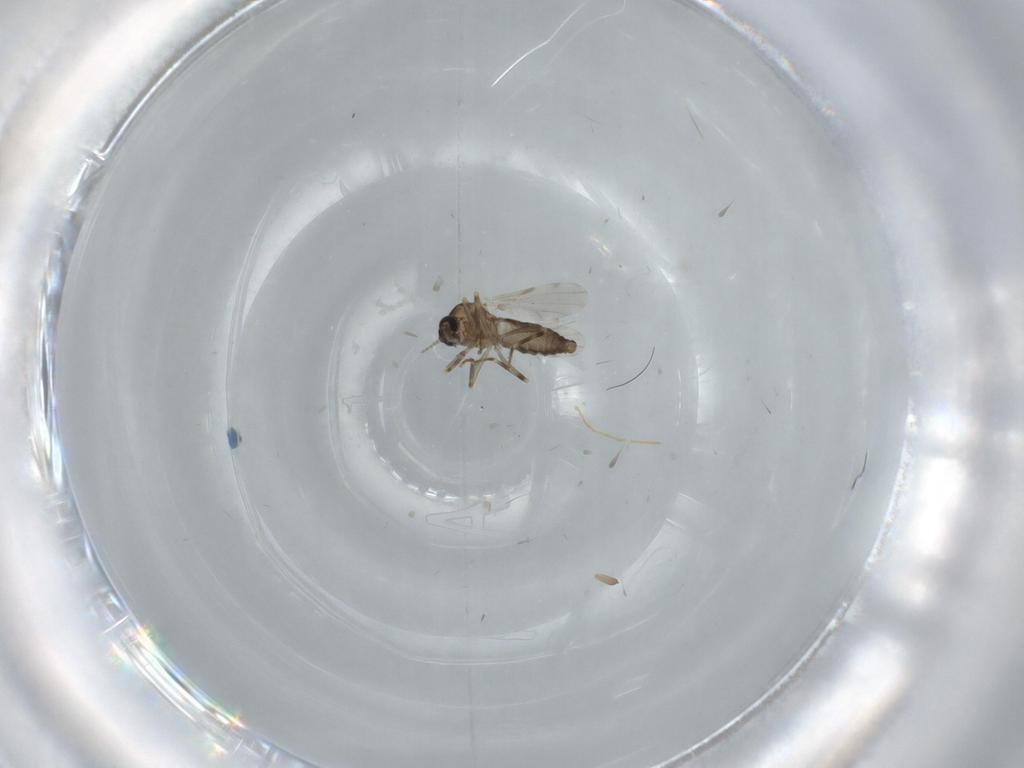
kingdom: Animalia
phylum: Arthropoda
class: Insecta
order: Diptera
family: Ceratopogonidae
